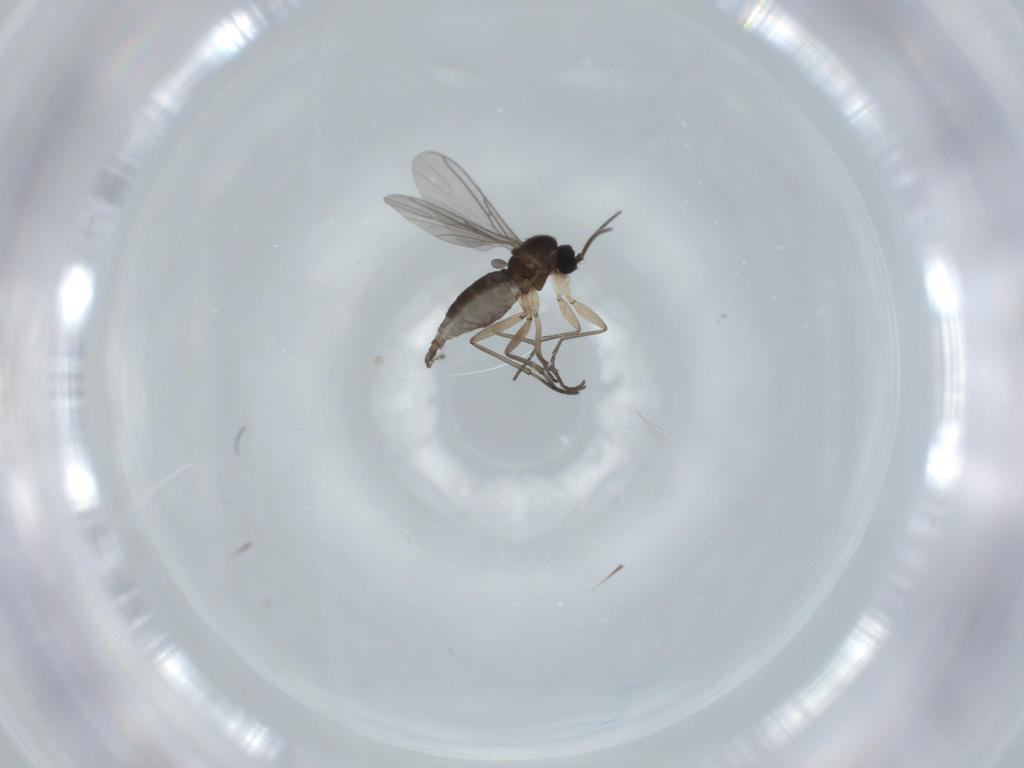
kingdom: Animalia
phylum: Arthropoda
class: Insecta
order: Diptera
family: Sciaridae
